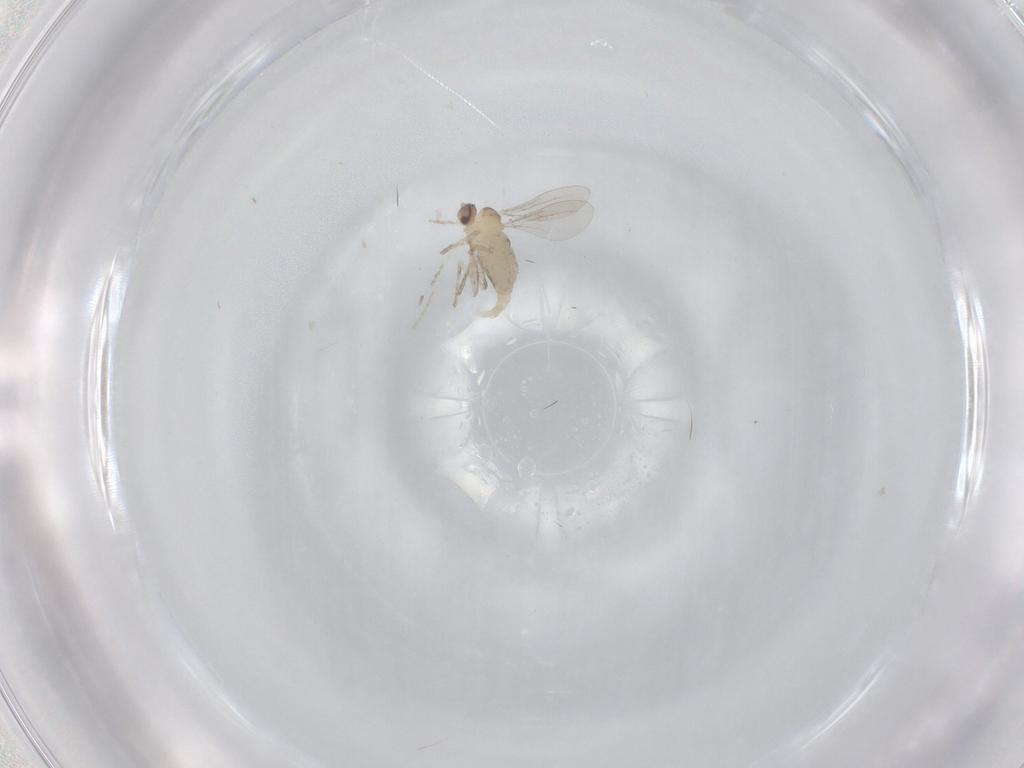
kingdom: Animalia
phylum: Arthropoda
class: Insecta
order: Diptera
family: Cecidomyiidae
